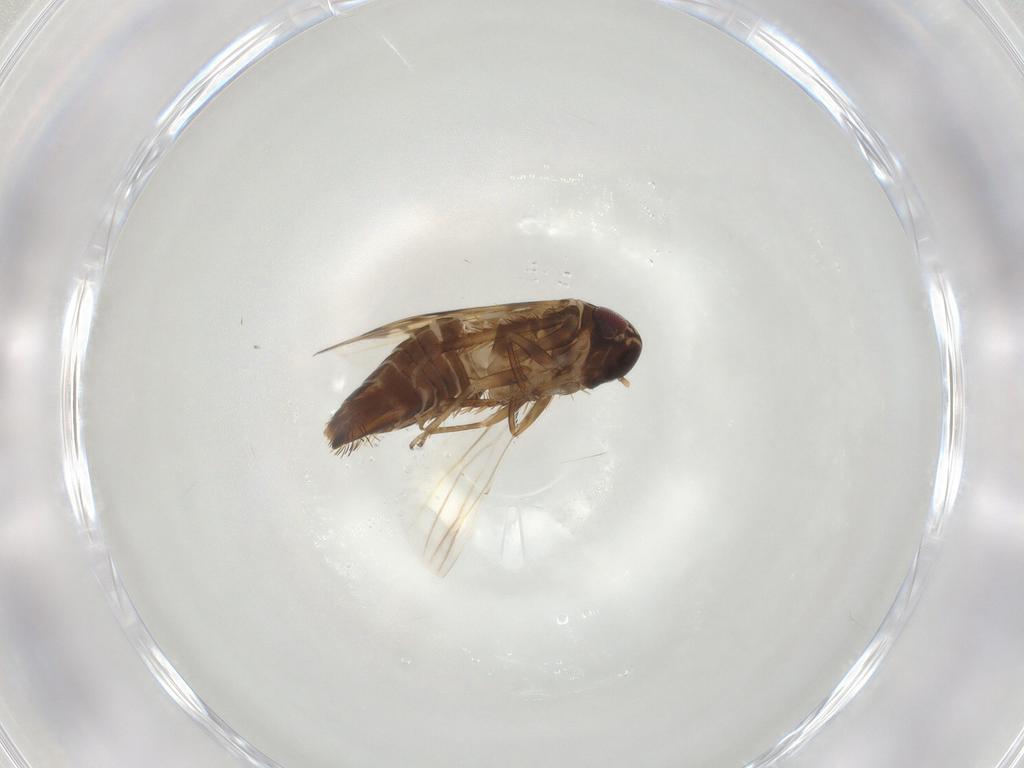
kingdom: Animalia
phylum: Arthropoda
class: Insecta
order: Hemiptera
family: Cicadellidae
